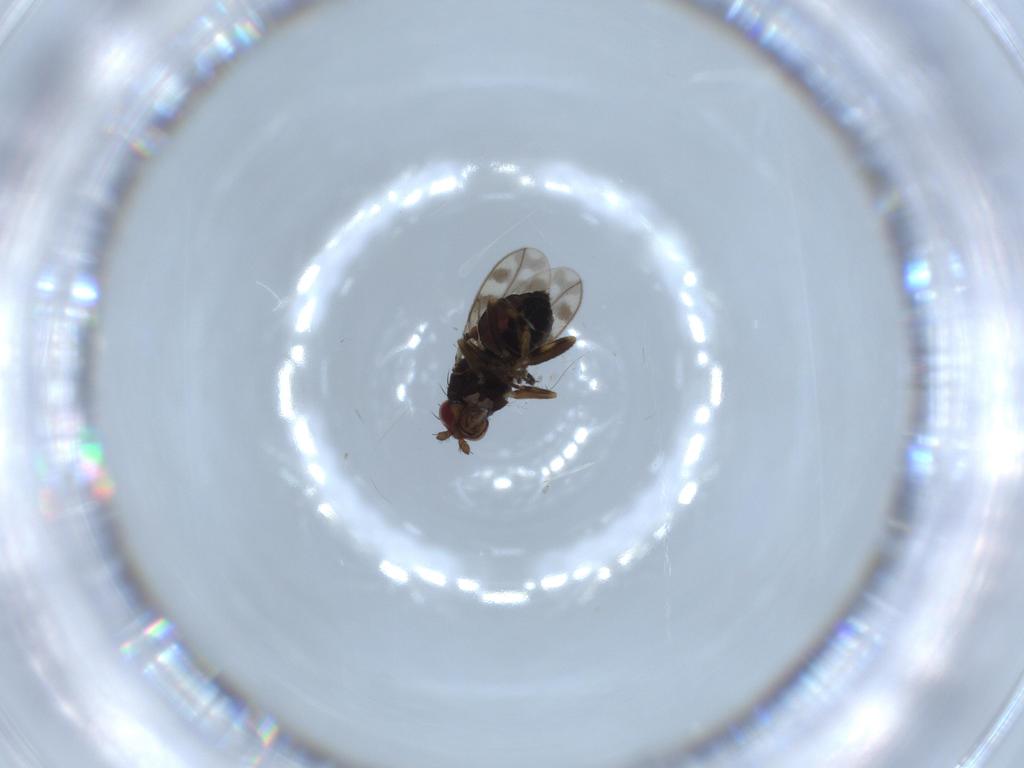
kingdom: Animalia
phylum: Arthropoda
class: Insecta
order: Diptera
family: Sphaeroceridae
